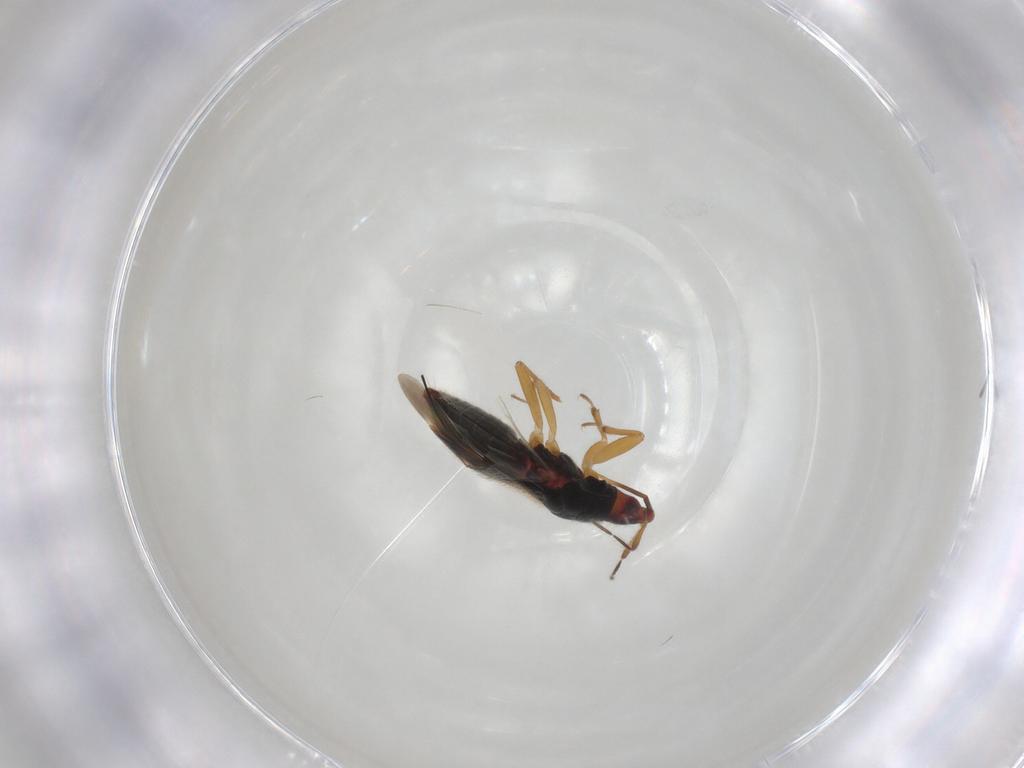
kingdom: Animalia
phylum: Arthropoda
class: Insecta
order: Hemiptera
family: Anthocoridae
